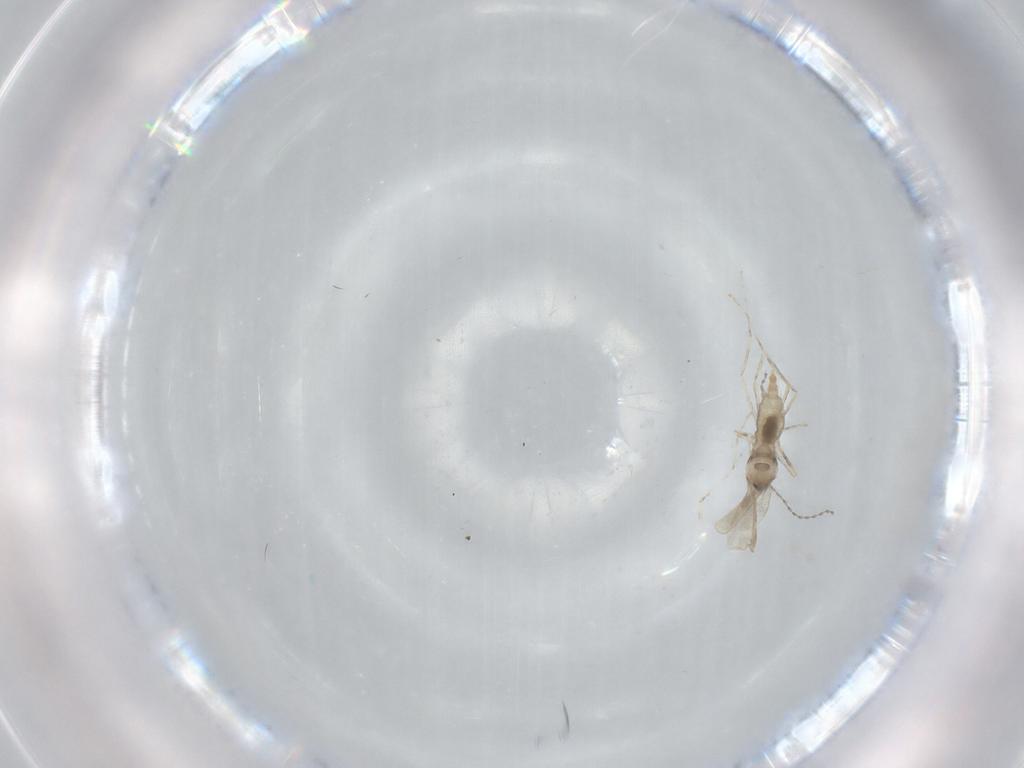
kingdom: Animalia
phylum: Arthropoda
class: Insecta
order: Diptera
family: Cecidomyiidae
